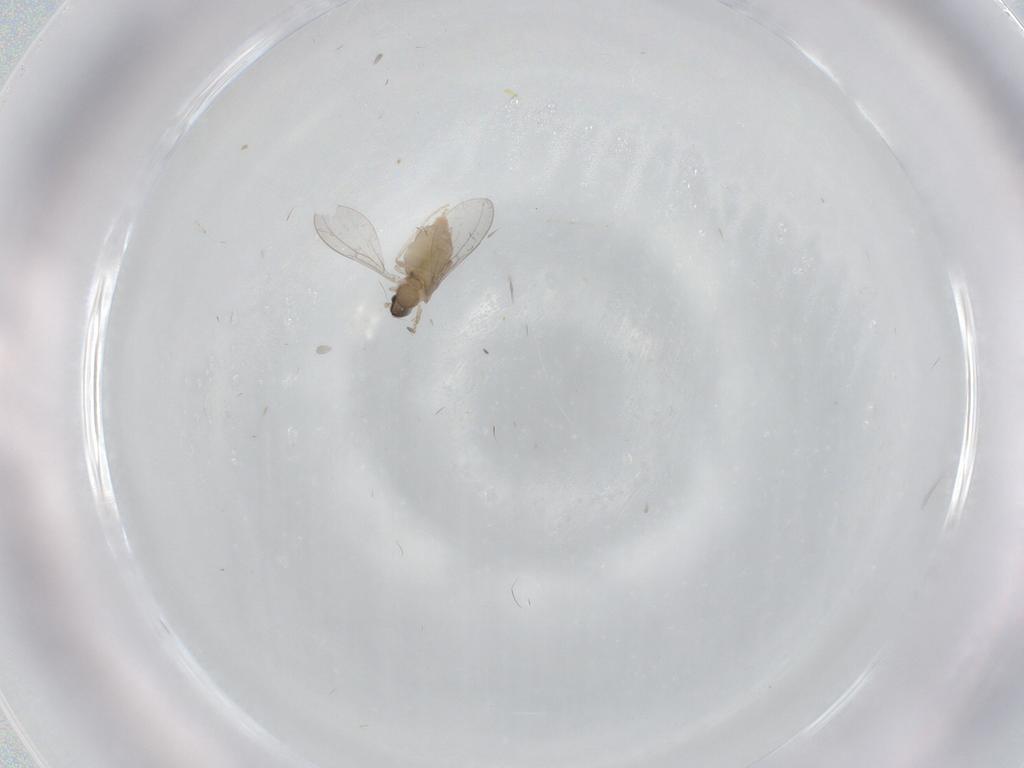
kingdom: Animalia
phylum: Arthropoda
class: Insecta
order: Diptera
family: Cecidomyiidae
